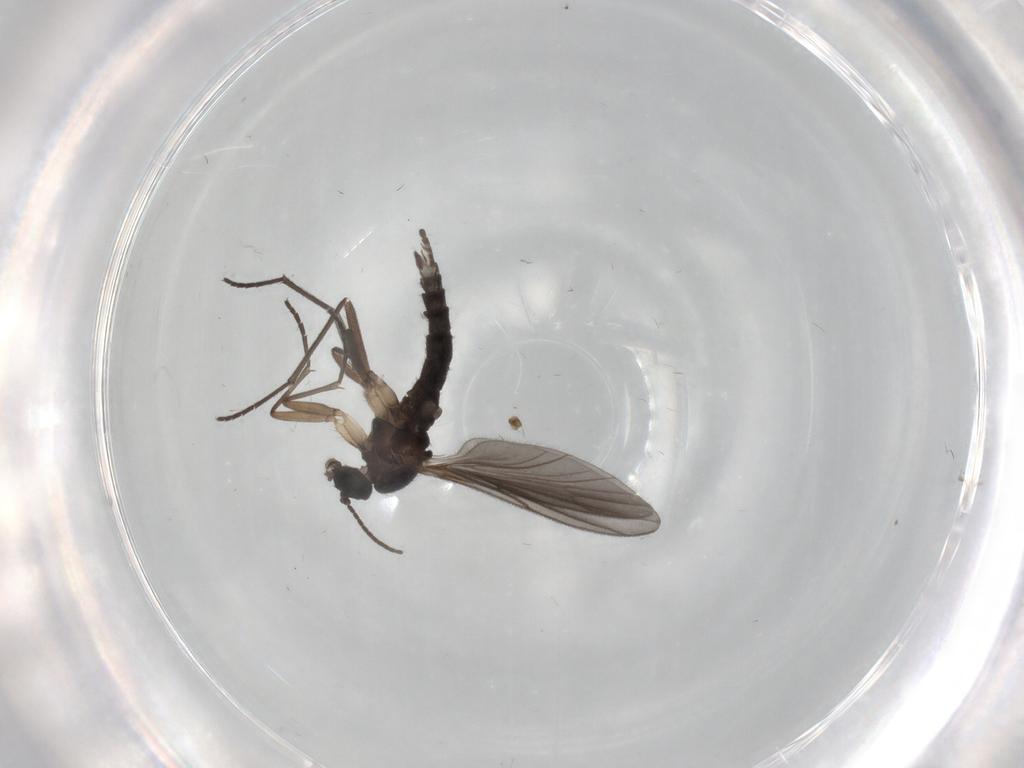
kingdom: Animalia
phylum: Arthropoda
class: Insecta
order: Diptera
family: Sciaridae
